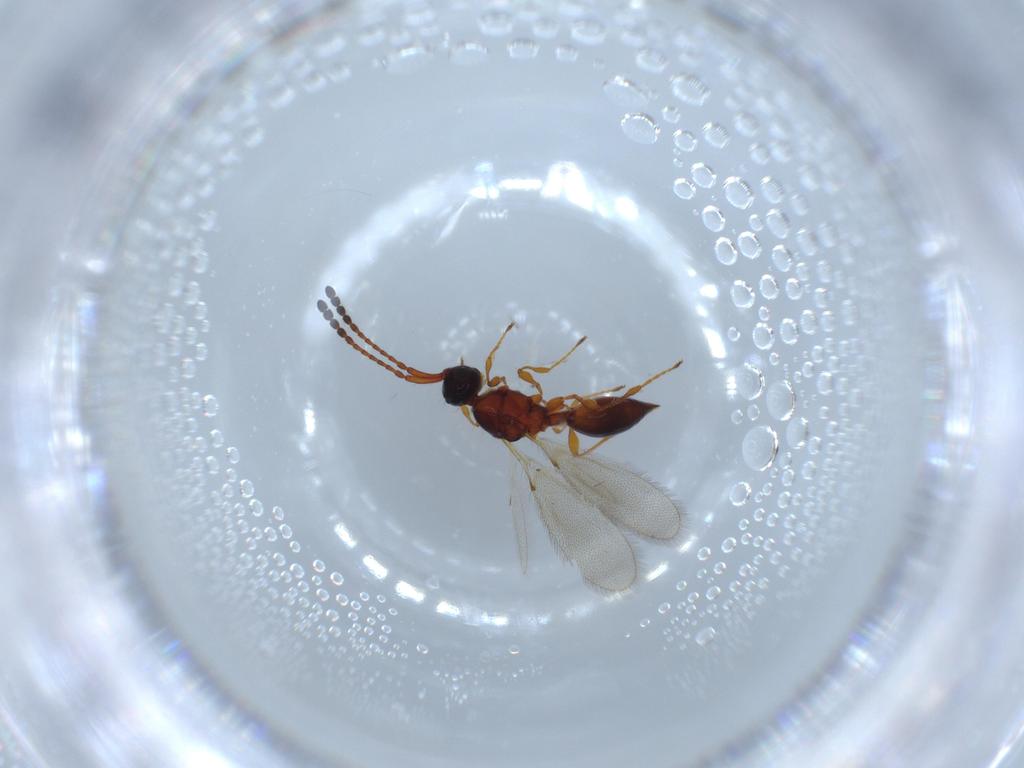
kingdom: Animalia
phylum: Arthropoda
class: Insecta
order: Hymenoptera
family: Diapriidae
